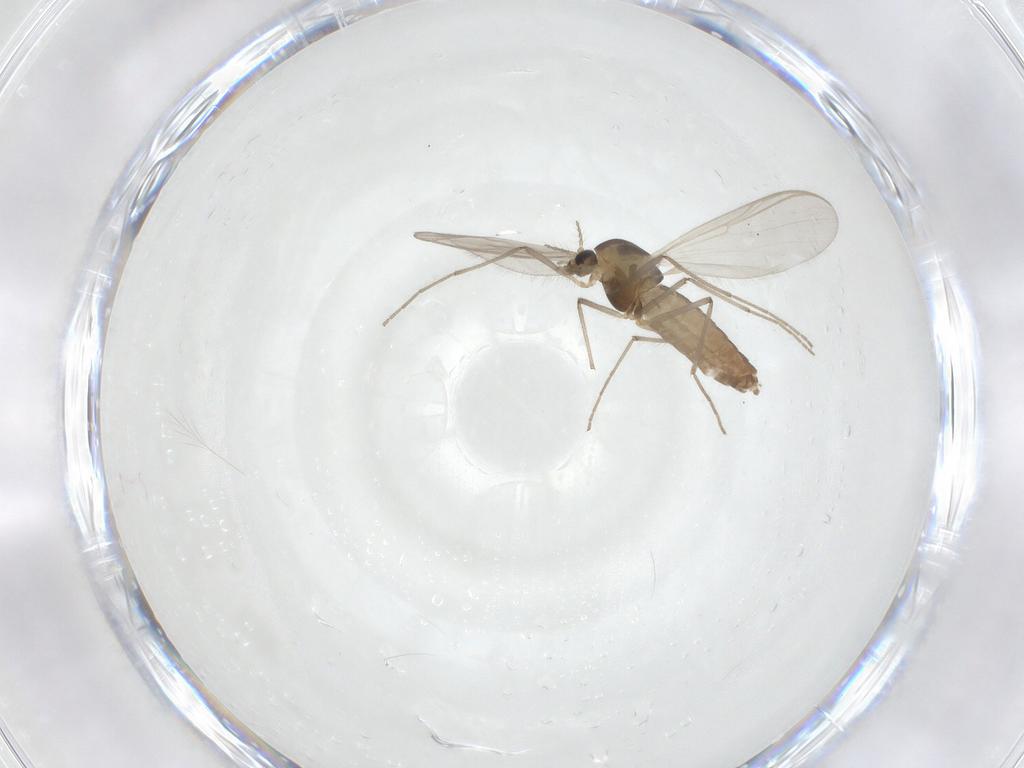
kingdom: Animalia
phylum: Arthropoda
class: Insecta
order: Diptera
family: Chironomidae
